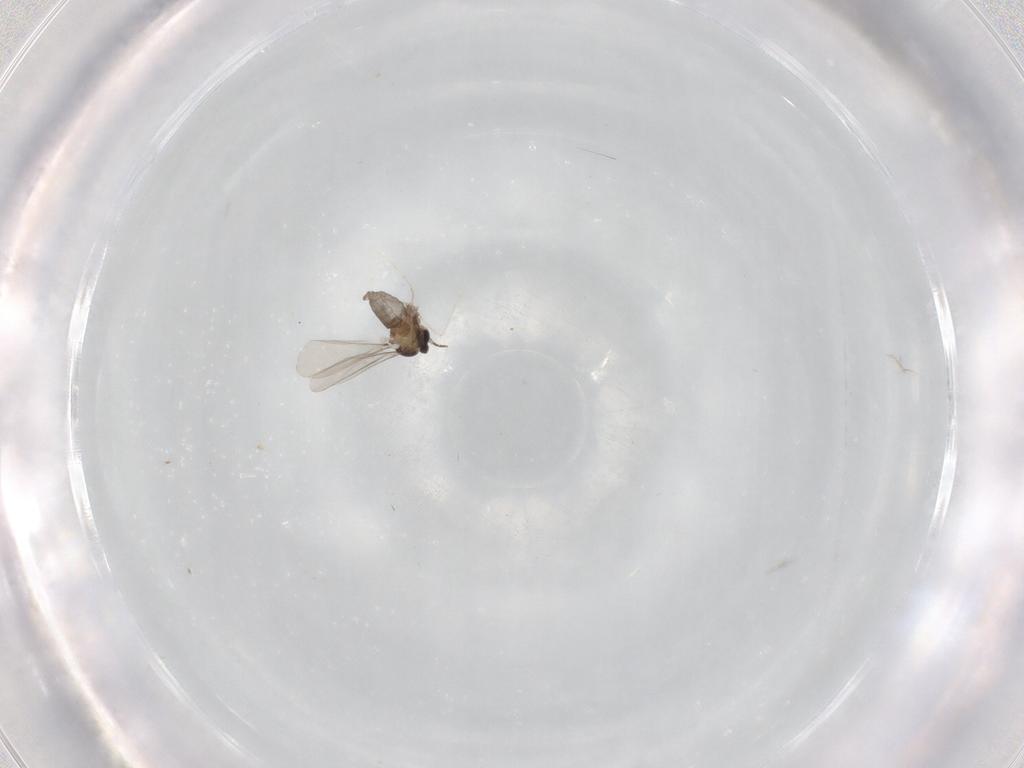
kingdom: Animalia
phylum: Arthropoda
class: Insecta
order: Diptera
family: Cecidomyiidae
